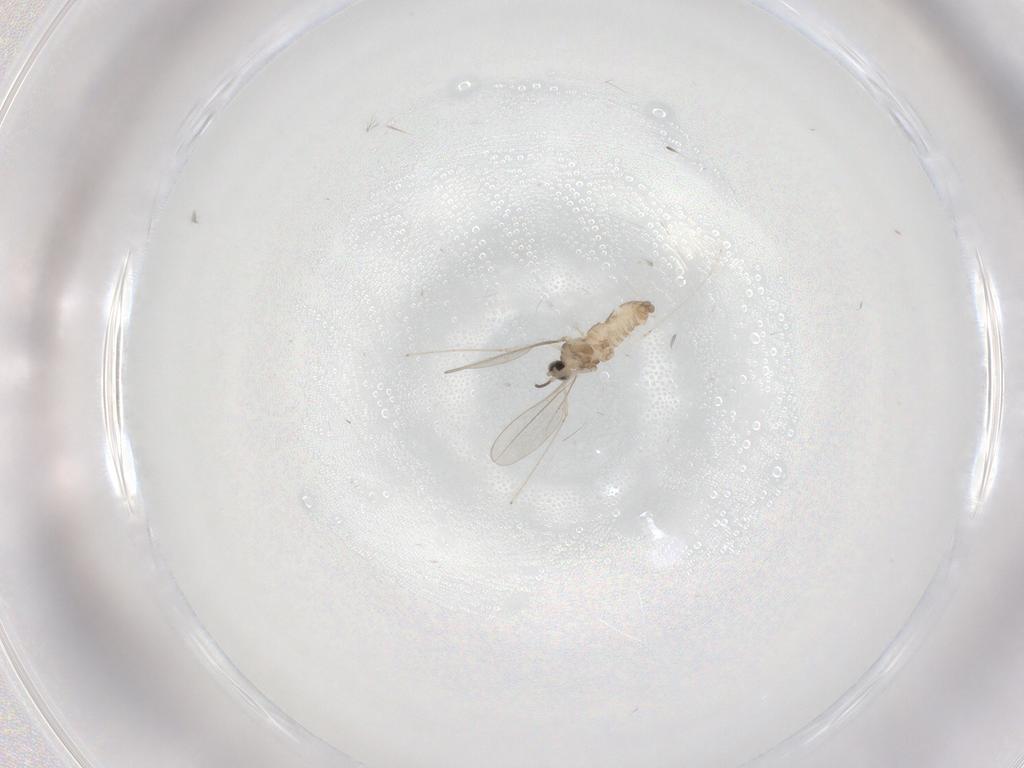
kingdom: Animalia
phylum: Arthropoda
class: Insecta
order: Diptera
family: Cecidomyiidae
